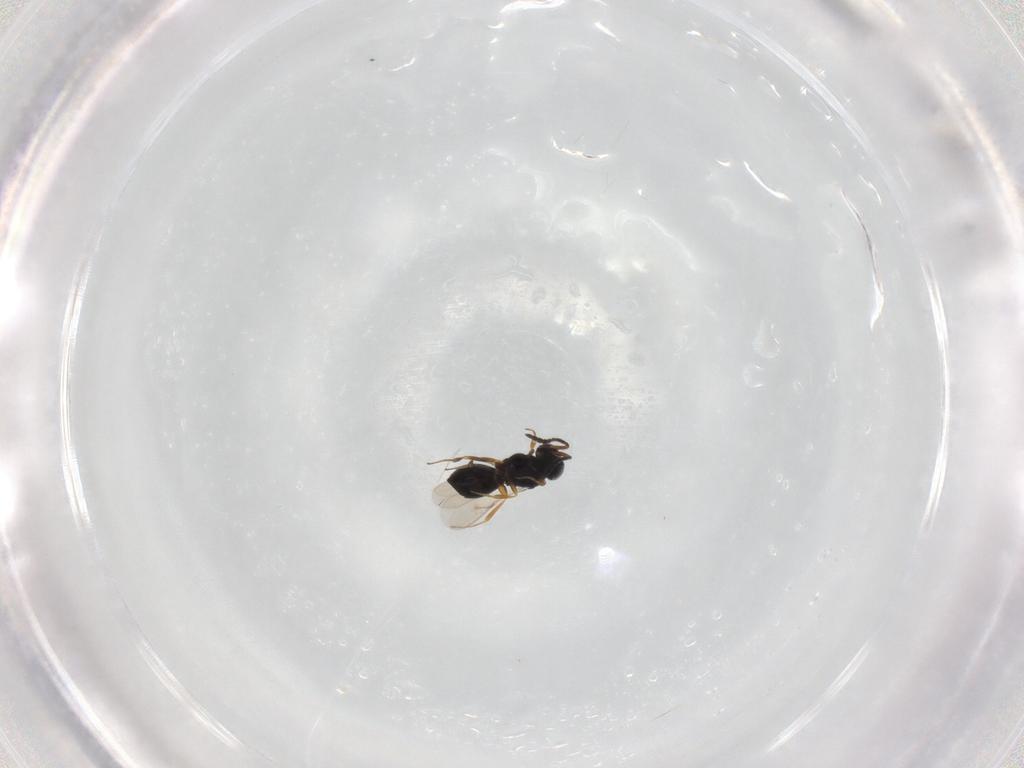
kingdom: Animalia
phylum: Arthropoda
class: Insecta
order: Hymenoptera
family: Scelionidae
